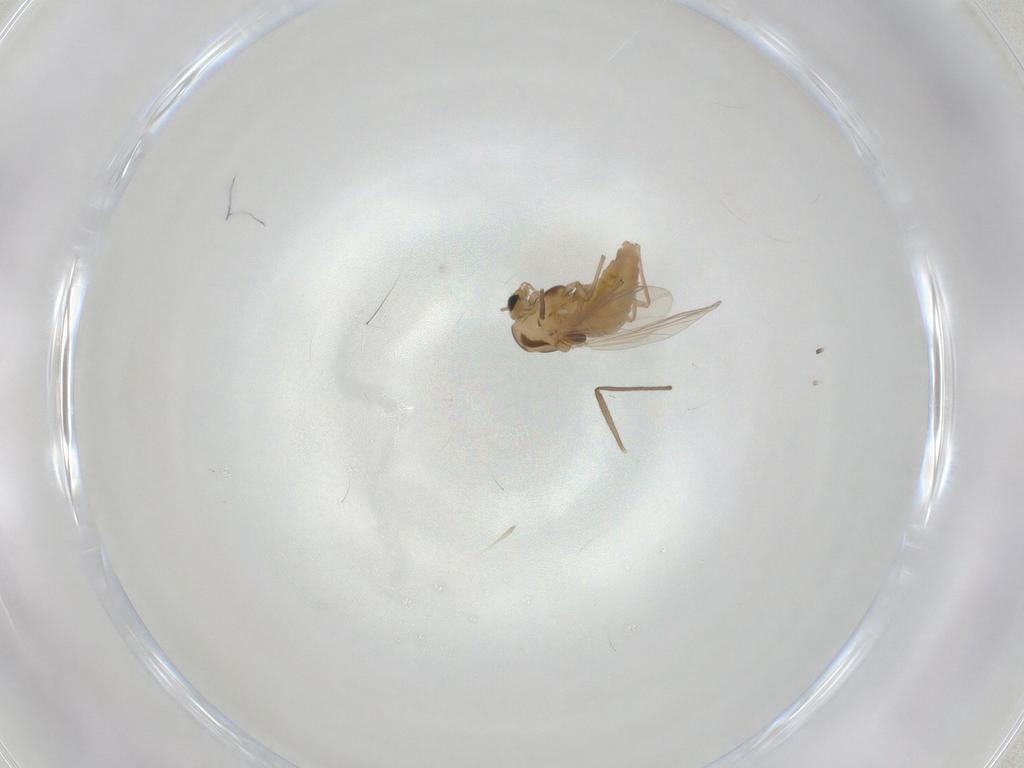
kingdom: Animalia
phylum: Arthropoda
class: Insecta
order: Diptera
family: Chironomidae
